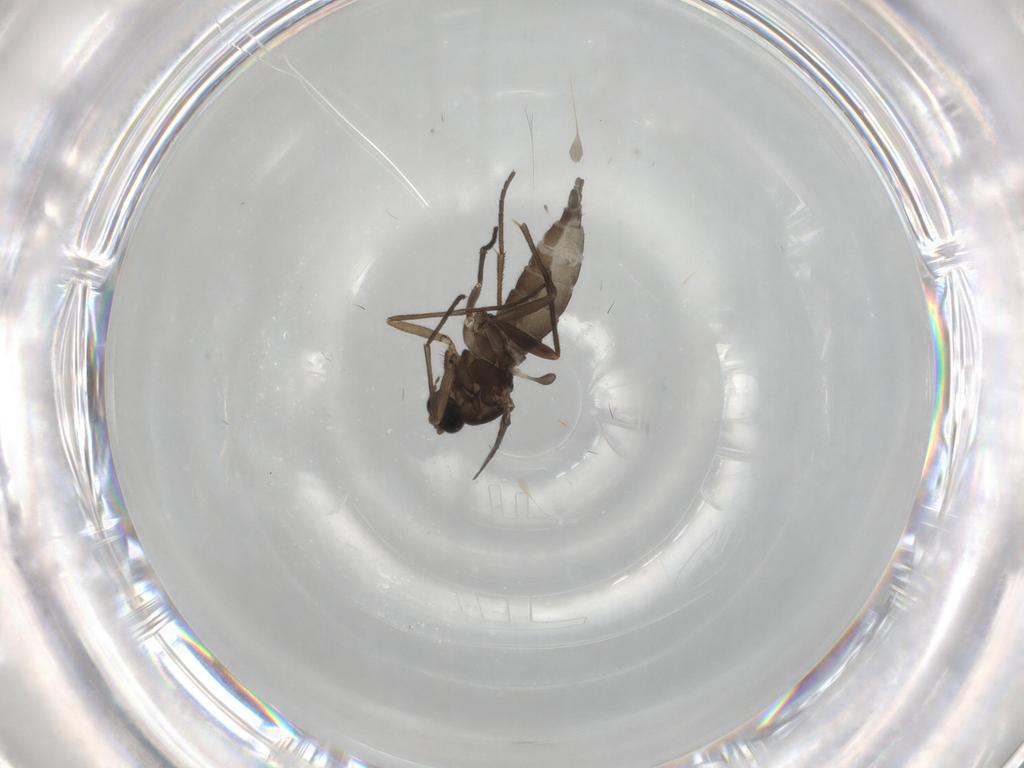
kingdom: Animalia
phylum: Arthropoda
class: Insecta
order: Diptera
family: Sciaridae
